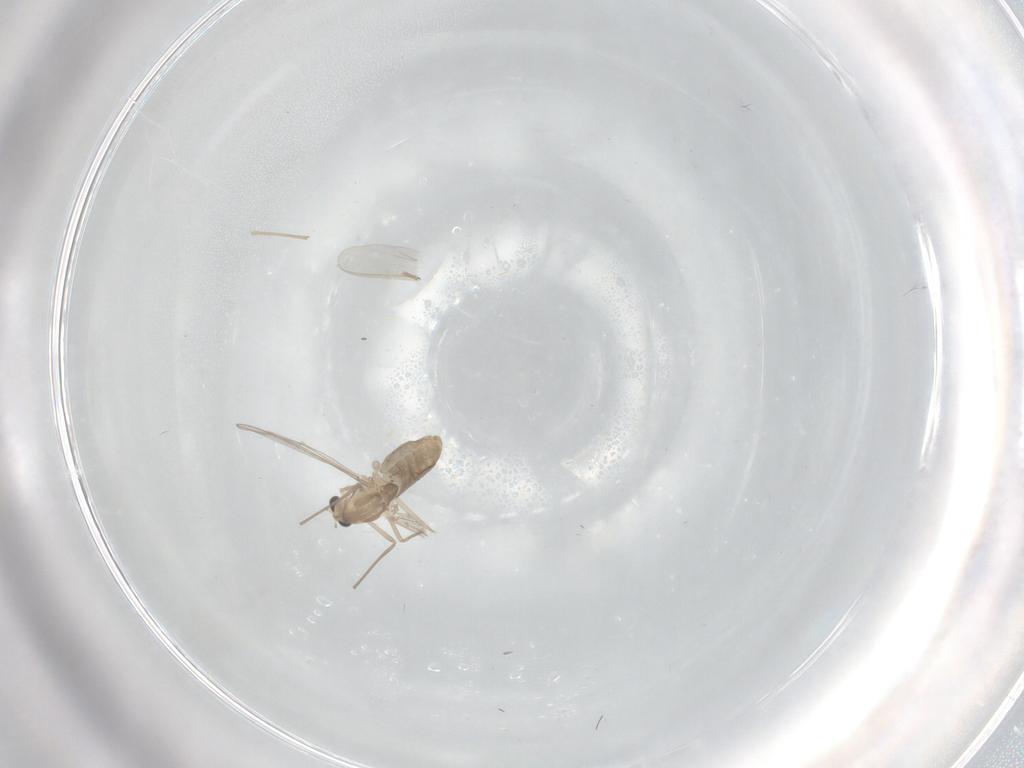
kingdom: Animalia
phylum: Arthropoda
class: Insecta
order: Diptera
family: Chironomidae
